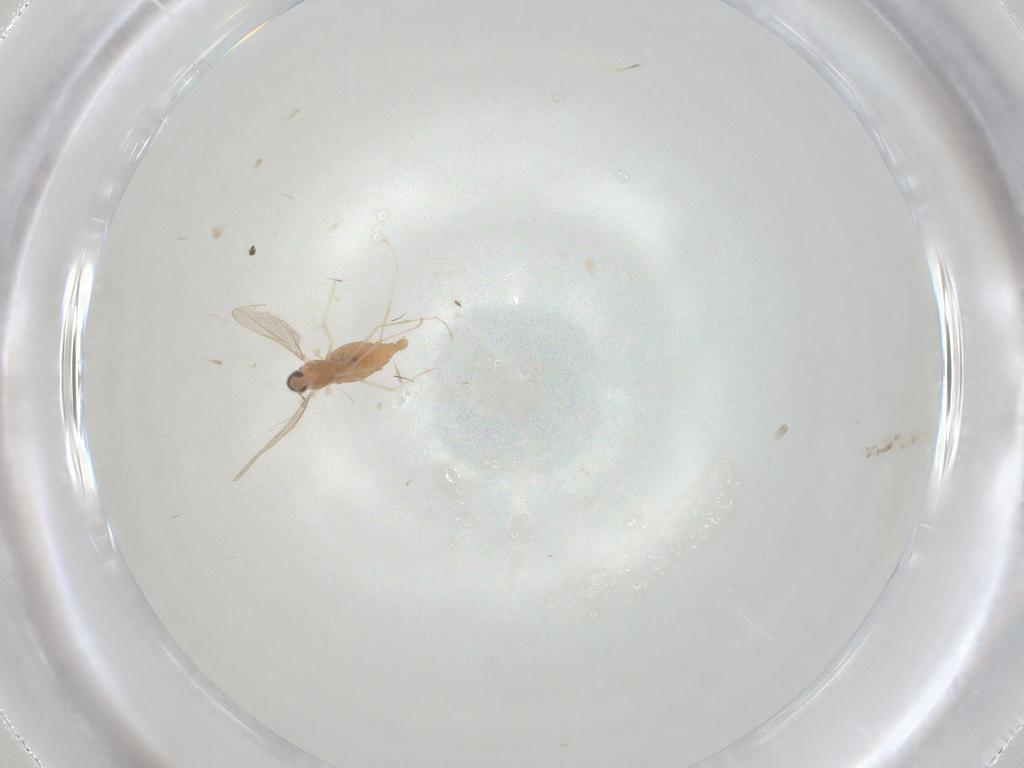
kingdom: Animalia
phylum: Arthropoda
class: Insecta
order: Diptera
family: Cecidomyiidae
